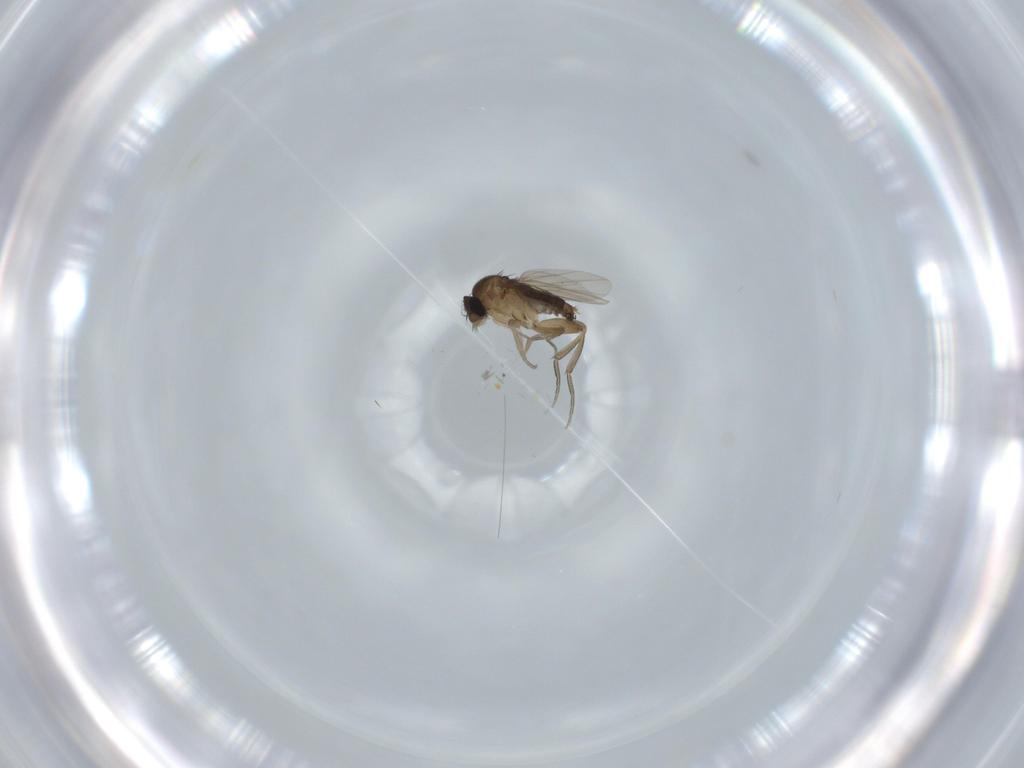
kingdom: Animalia
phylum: Arthropoda
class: Insecta
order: Diptera
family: Phoridae
